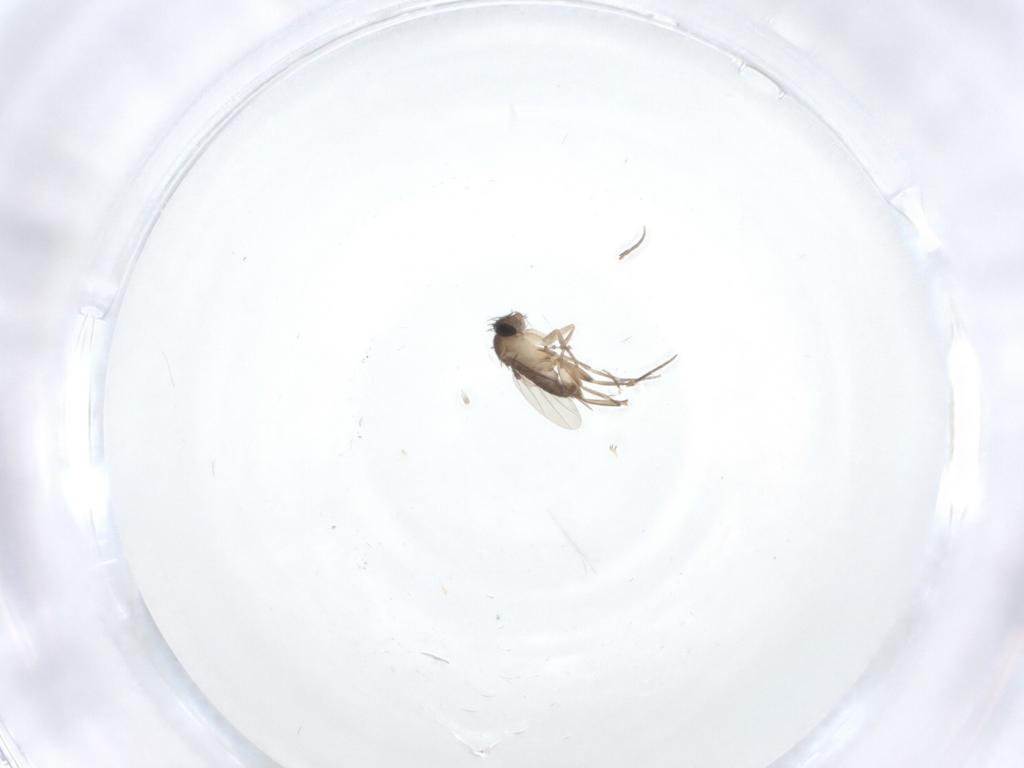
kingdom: Animalia
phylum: Arthropoda
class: Insecta
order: Diptera
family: Phoridae
